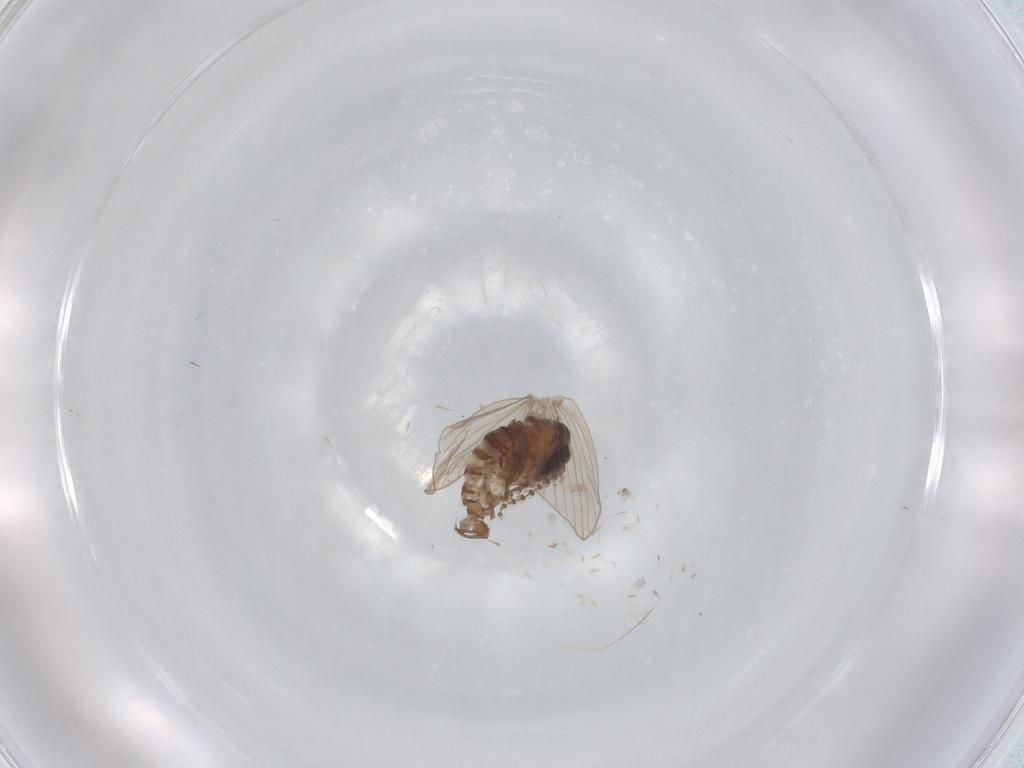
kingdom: Animalia
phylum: Arthropoda
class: Insecta
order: Diptera
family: Psychodidae
